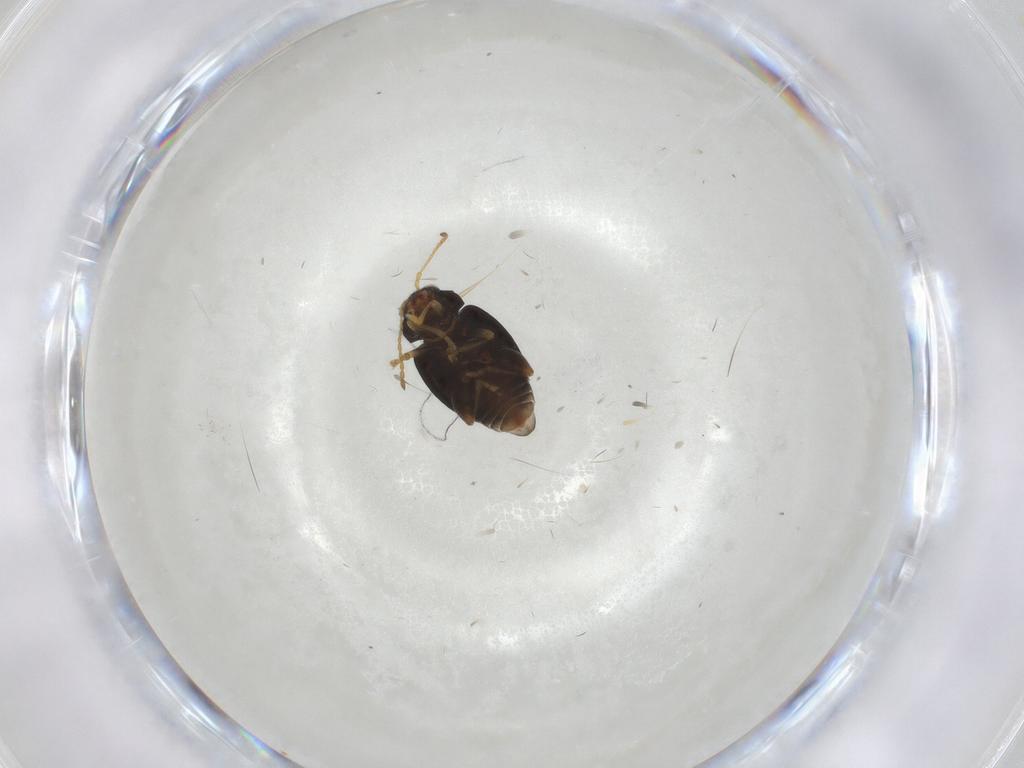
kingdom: Animalia
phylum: Arthropoda
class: Insecta
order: Coleoptera
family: Chrysomelidae
